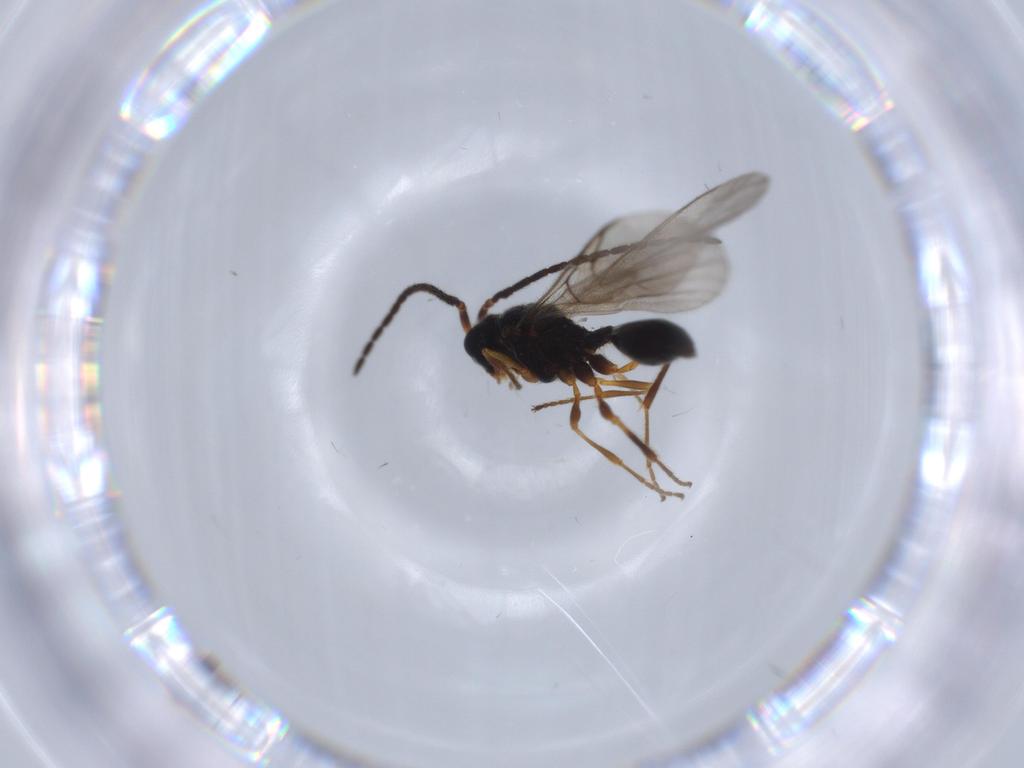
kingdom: Animalia
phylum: Arthropoda
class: Insecta
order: Hymenoptera
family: Diapriidae
